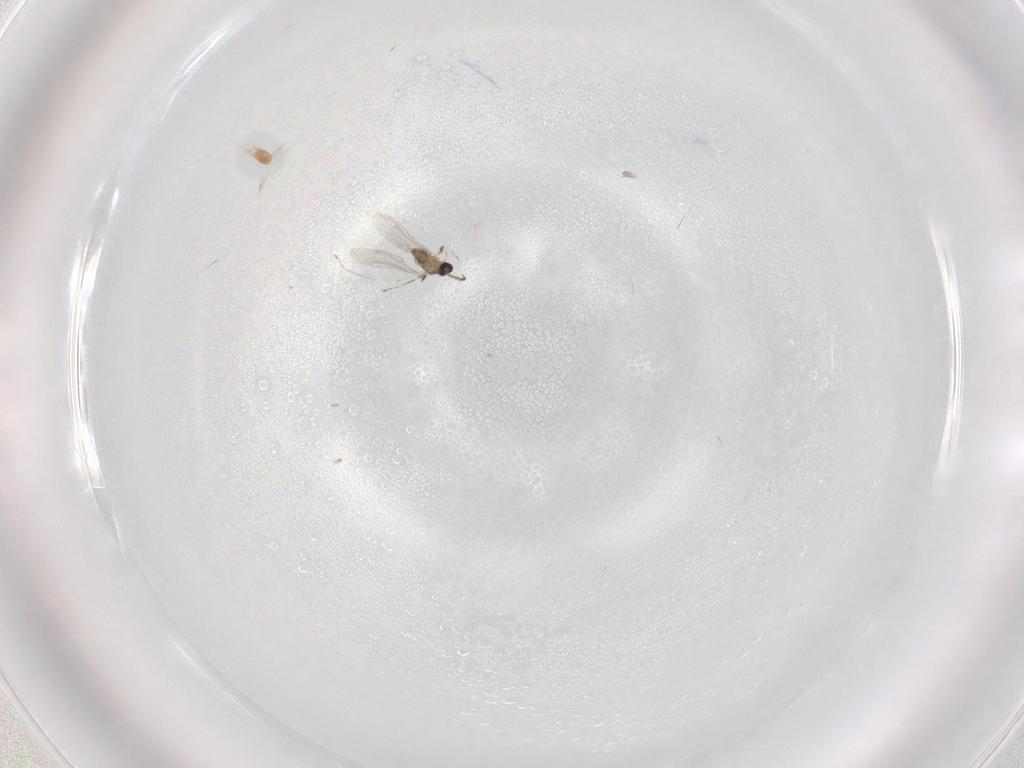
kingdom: Animalia
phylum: Arthropoda
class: Insecta
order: Diptera
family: Cecidomyiidae
